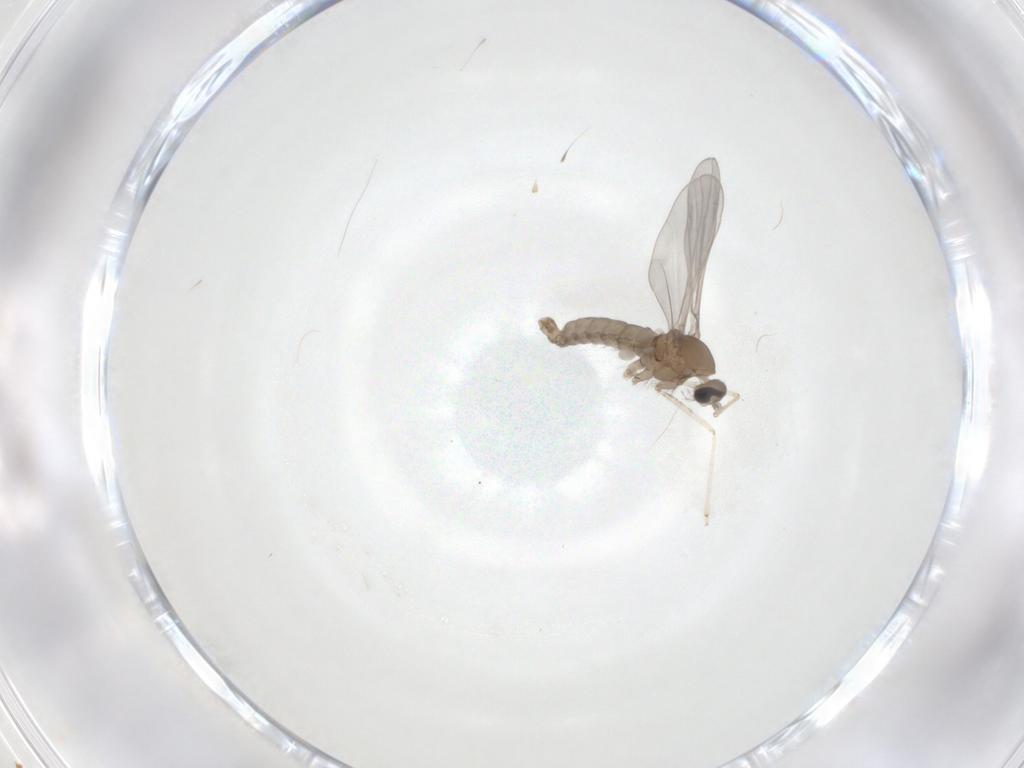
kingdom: Animalia
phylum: Arthropoda
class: Insecta
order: Diptera
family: Cecidomyiidae
